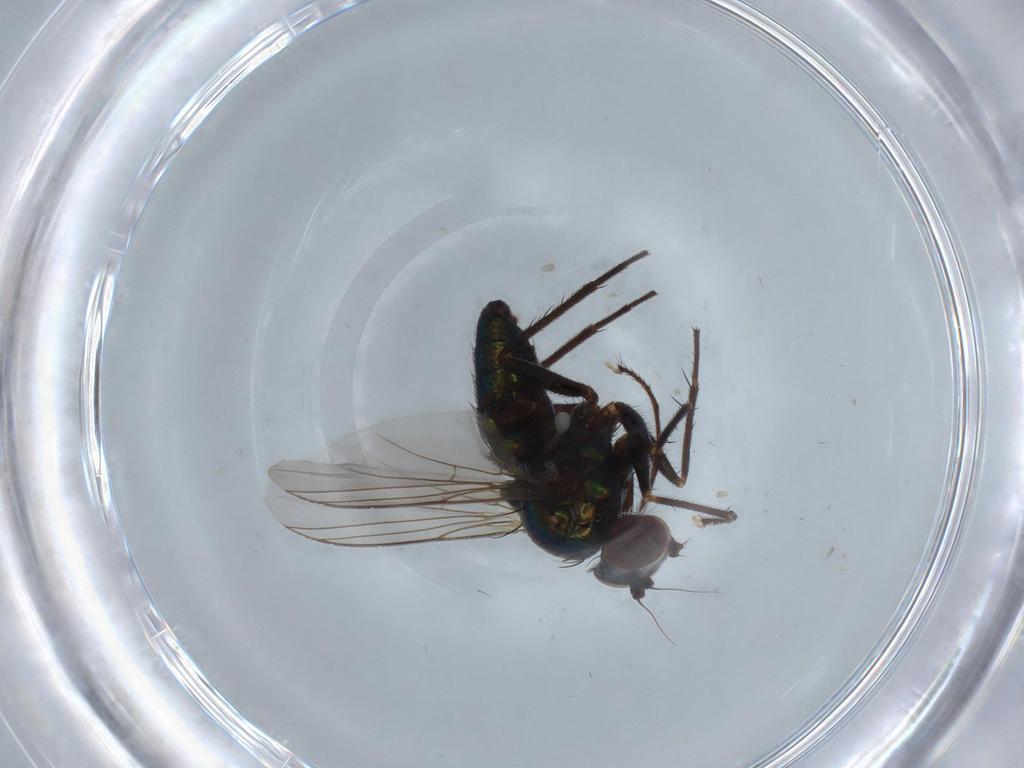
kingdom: Animalia
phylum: Arthropoda
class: Insecta
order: Diptera
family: Dolichopodidae
